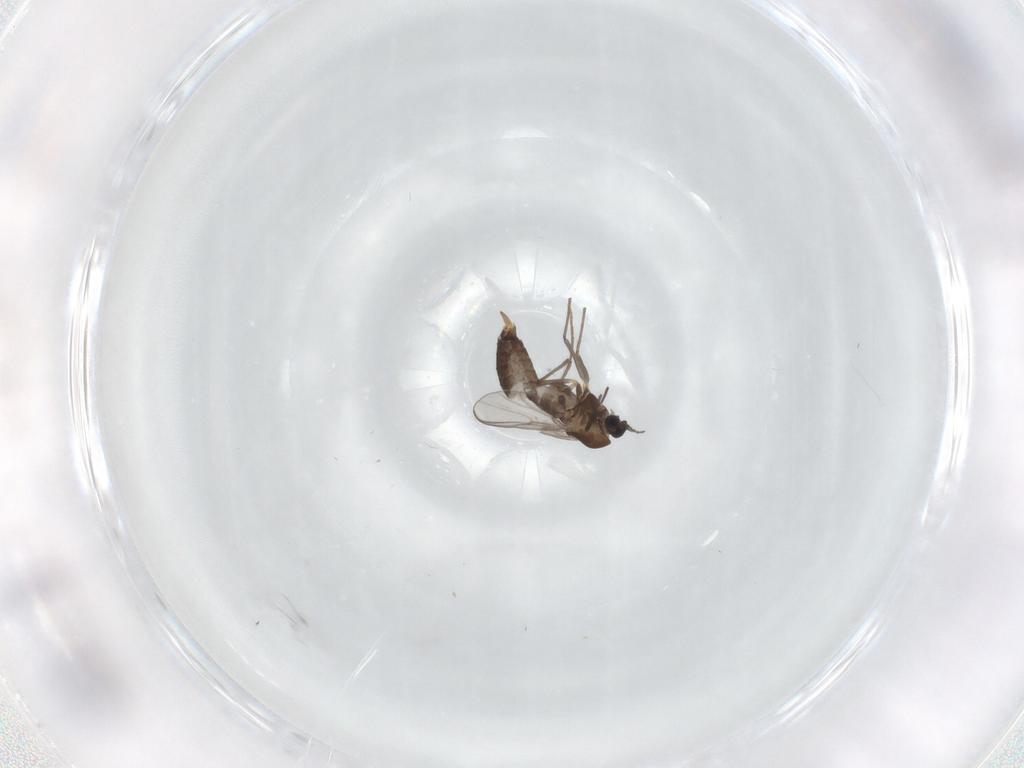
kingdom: Animalia
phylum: Arthropoda
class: Insecta
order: Diptera
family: Chironomidae
